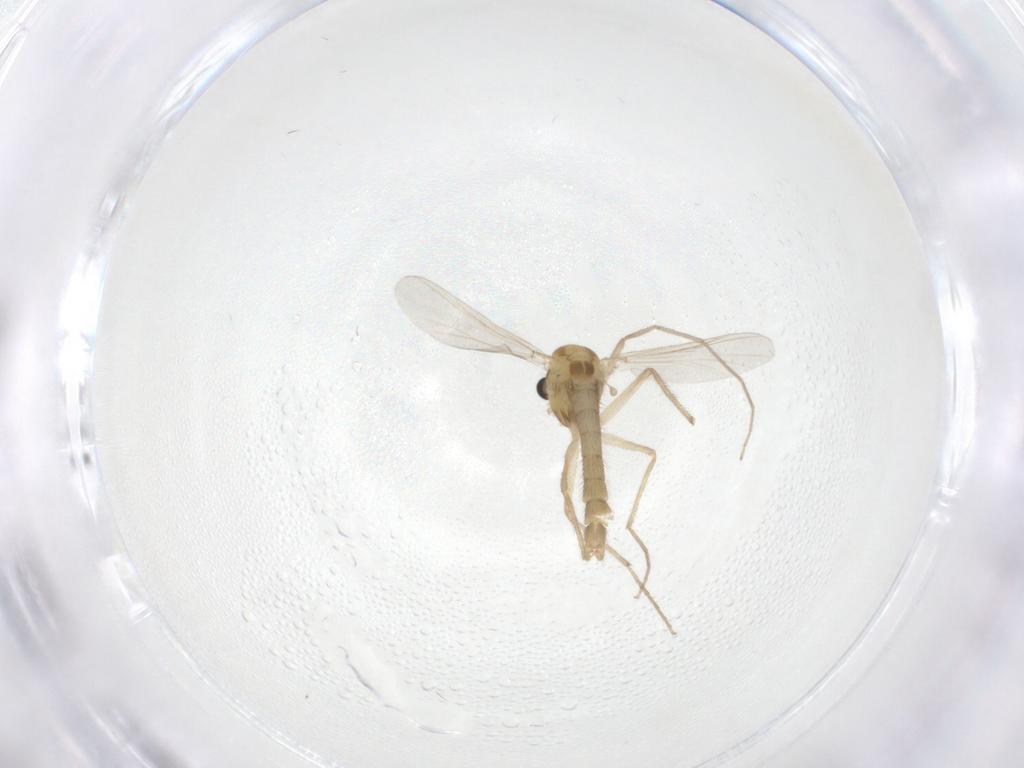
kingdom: Animalia
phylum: Arthropoda
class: Insecta
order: Diptera
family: Chironomidae
